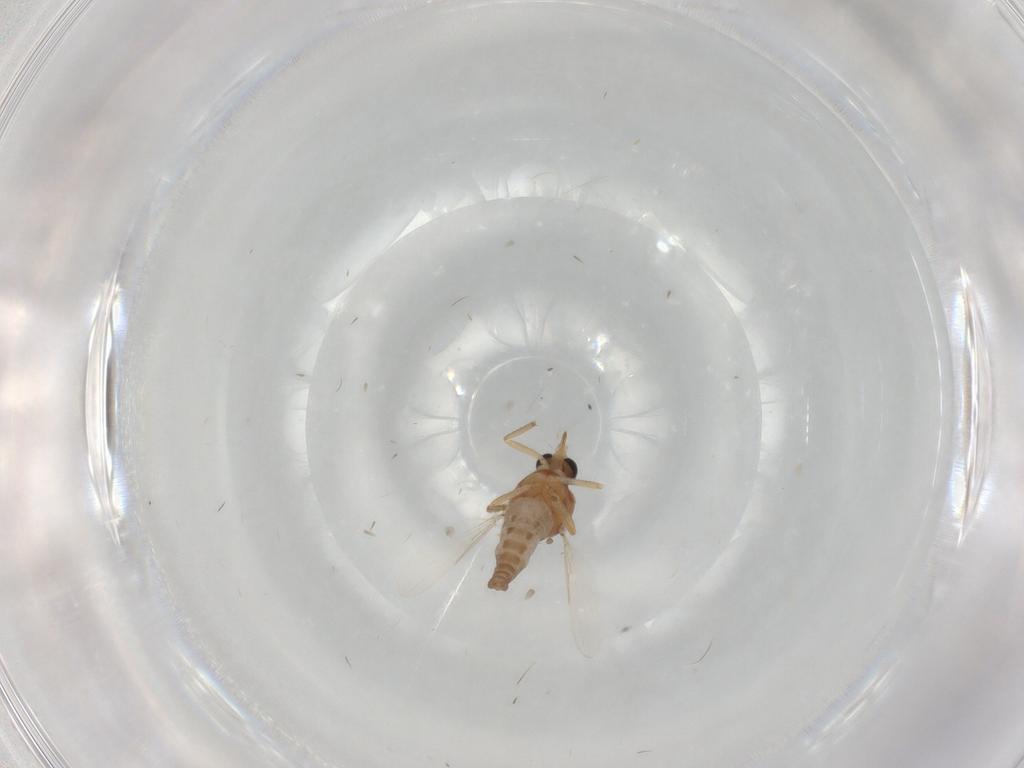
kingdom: Animalia
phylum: Arthropoda
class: Insecta
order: Diptera
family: Ceratopogonidae
